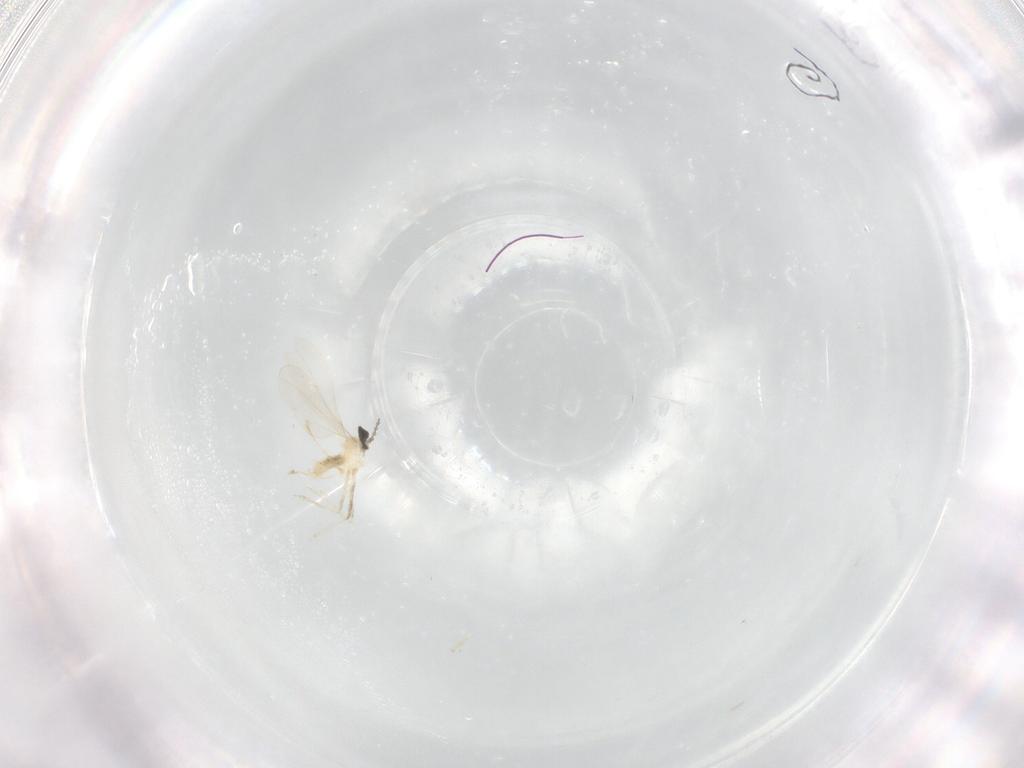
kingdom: Animalia
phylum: Arthropoda
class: Insecta
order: Diptera
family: Cecidomyiidae
